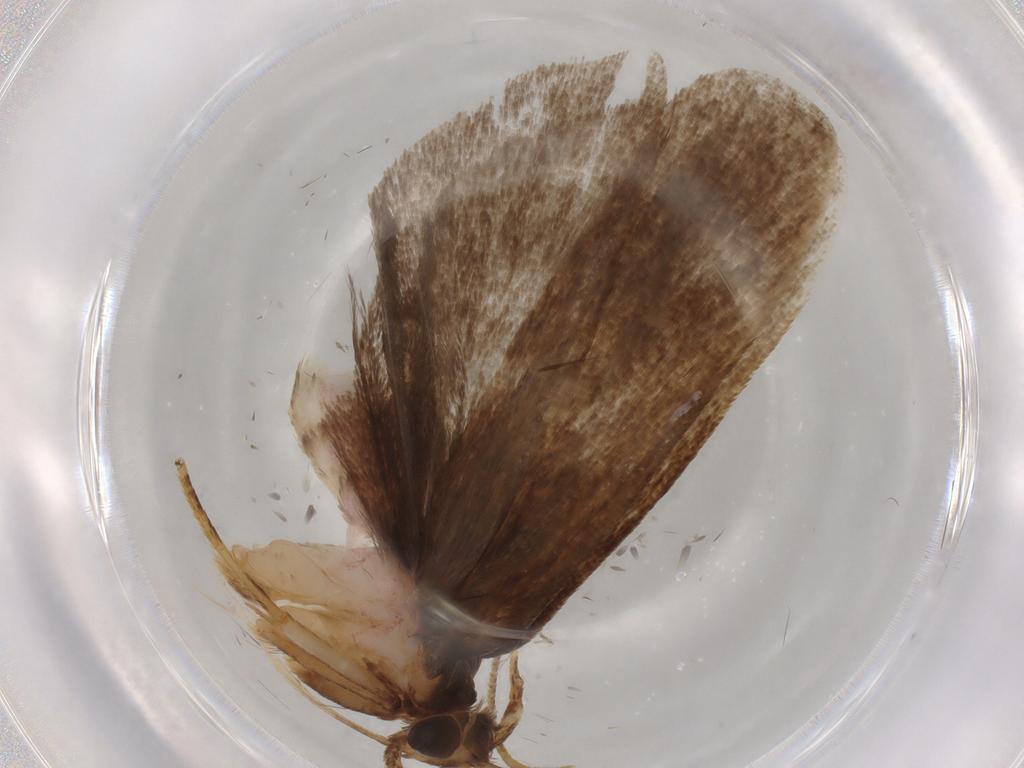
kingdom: Animalia
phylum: Arthropoda
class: Insecta
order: Lepidoptera
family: Autostichidae
